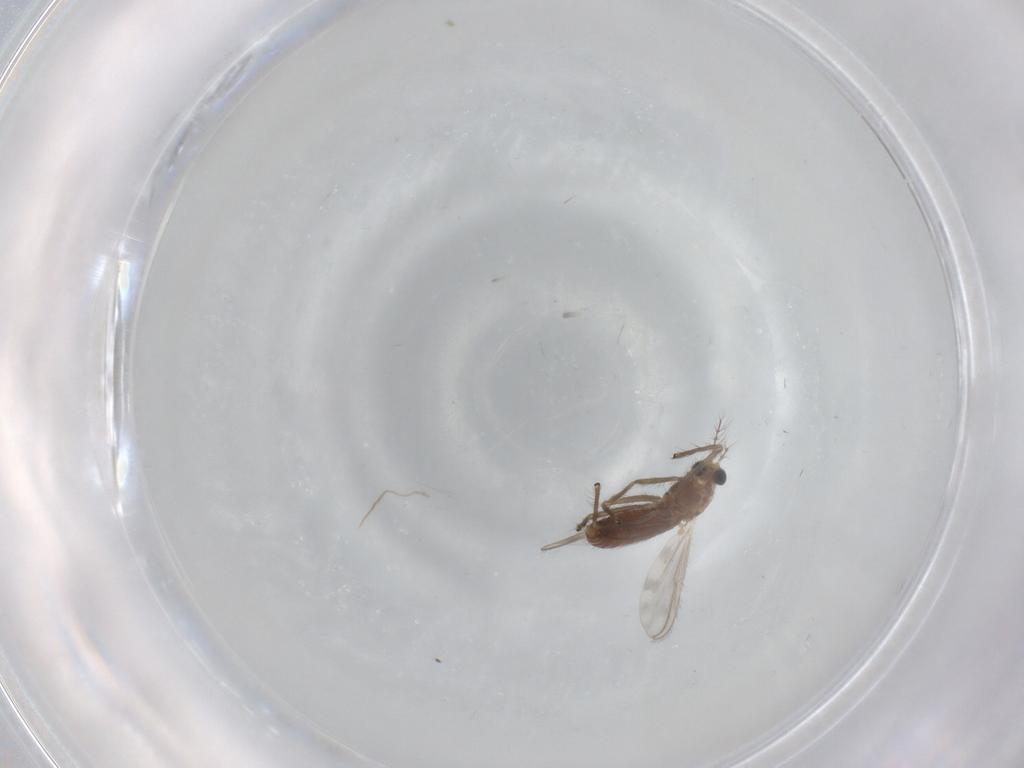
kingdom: Animalia
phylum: Arthropoda
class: Insecta
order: Diptera
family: Chironomidae
